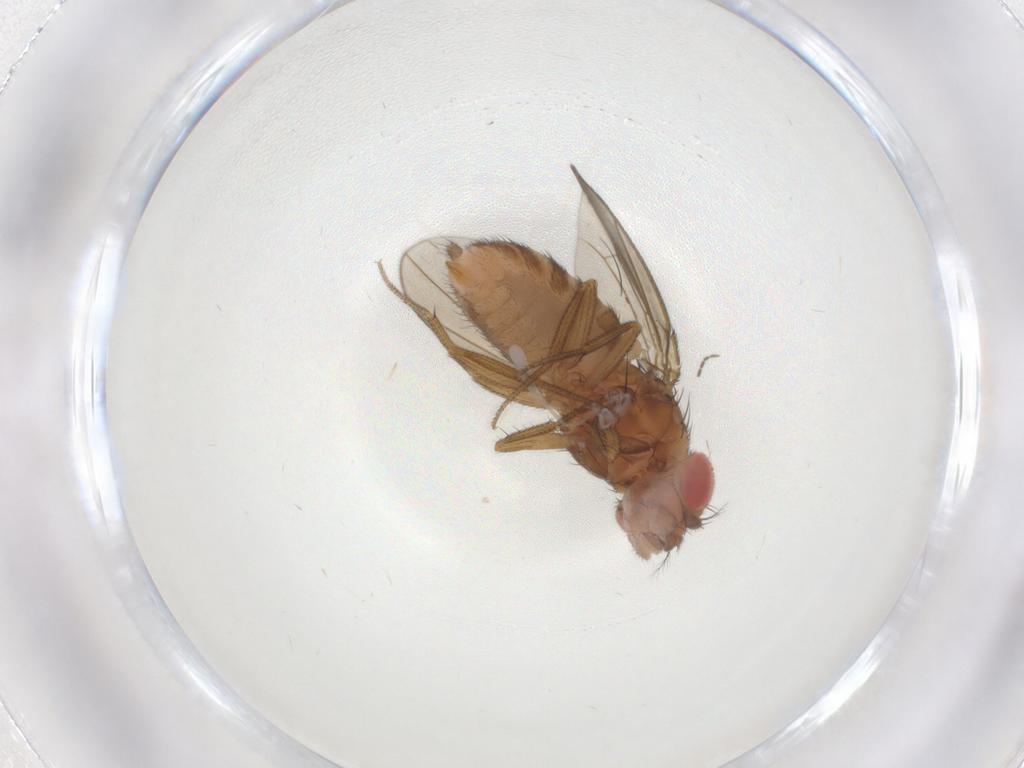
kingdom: Animalia
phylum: Arthropoda
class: Insecta
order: Diptera
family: Drosophilidae
